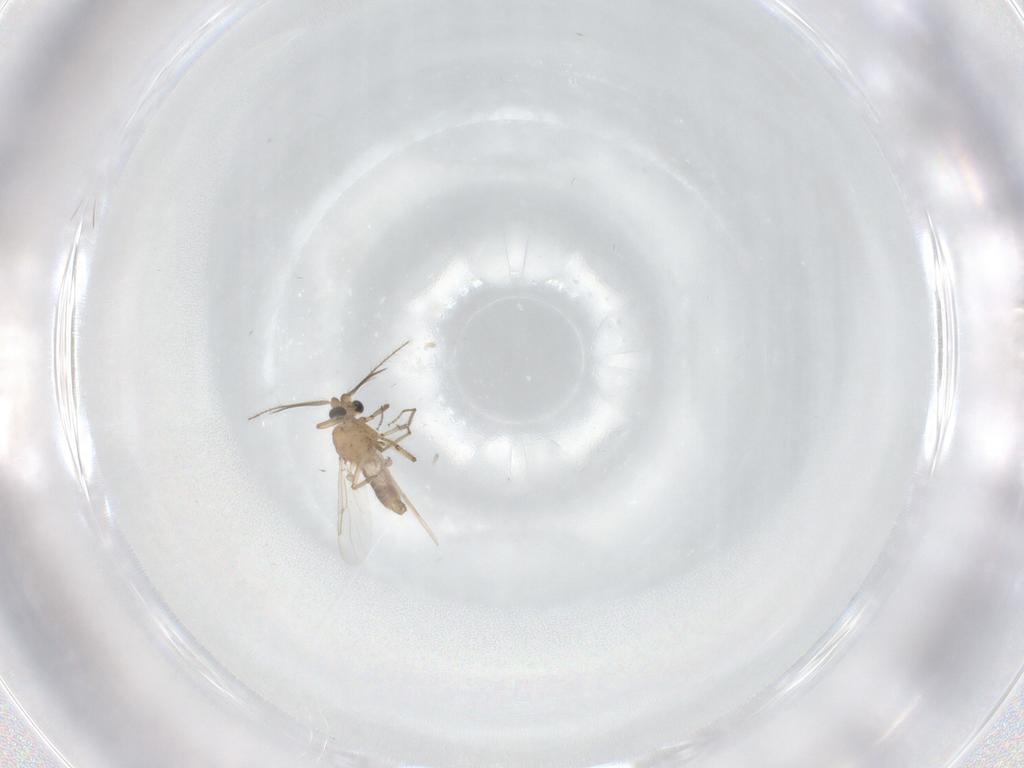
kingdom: Animalia
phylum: Arthropoda
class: Insecta
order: Diptera
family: Ceratopogonidae
